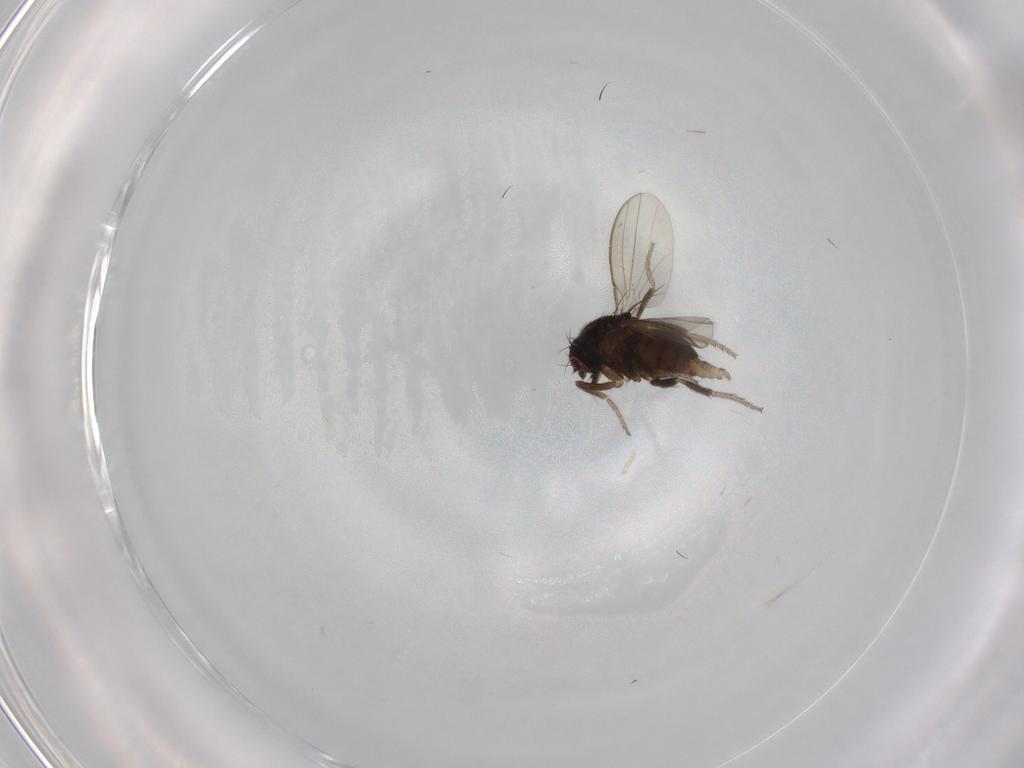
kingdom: Animalia
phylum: Arthropoda
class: Insecta
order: Diptera
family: Milichiidae
